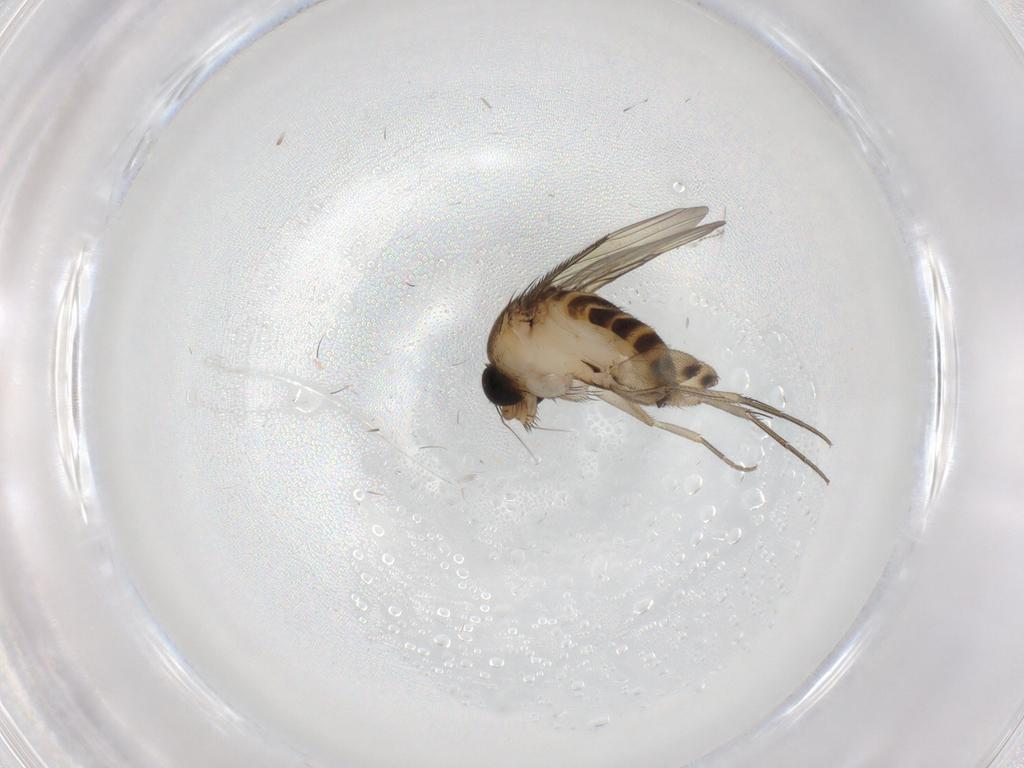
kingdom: Animalia
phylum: Arthropoda
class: Insecta
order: Diptera
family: Phoridae
